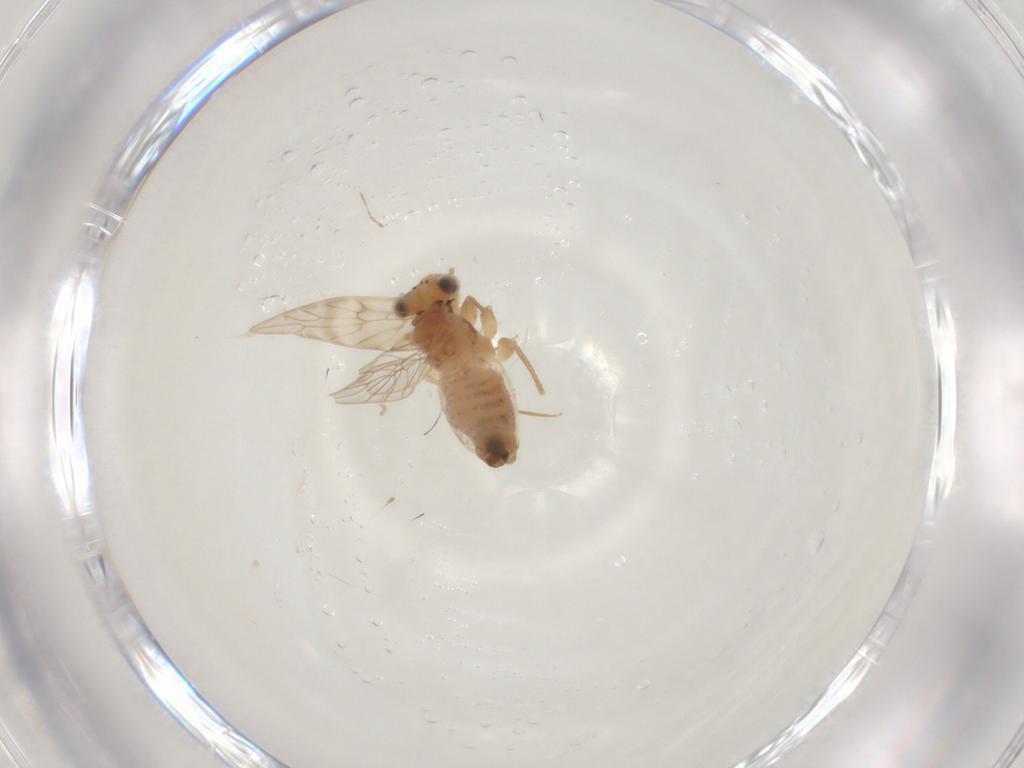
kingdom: Animalia
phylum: Arthropoda
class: Insecta
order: Psocodea
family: Lepidopsocidae
